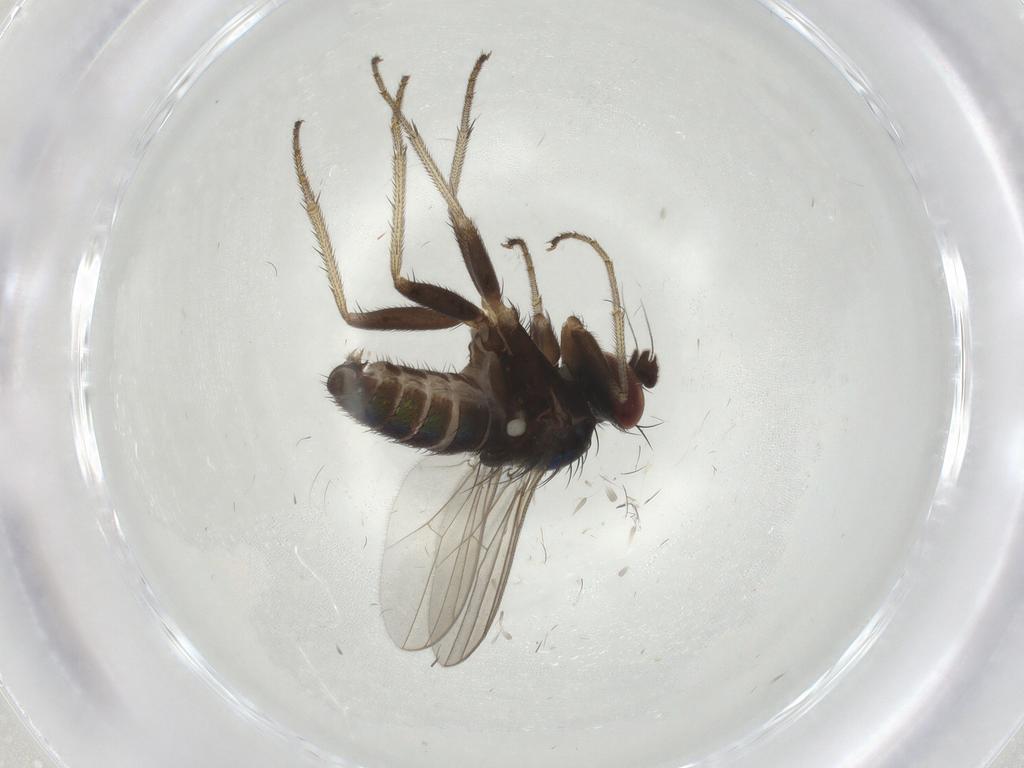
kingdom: Animalia
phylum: Arthropoda
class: Insecta
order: Diptera
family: Dolichopodidae
